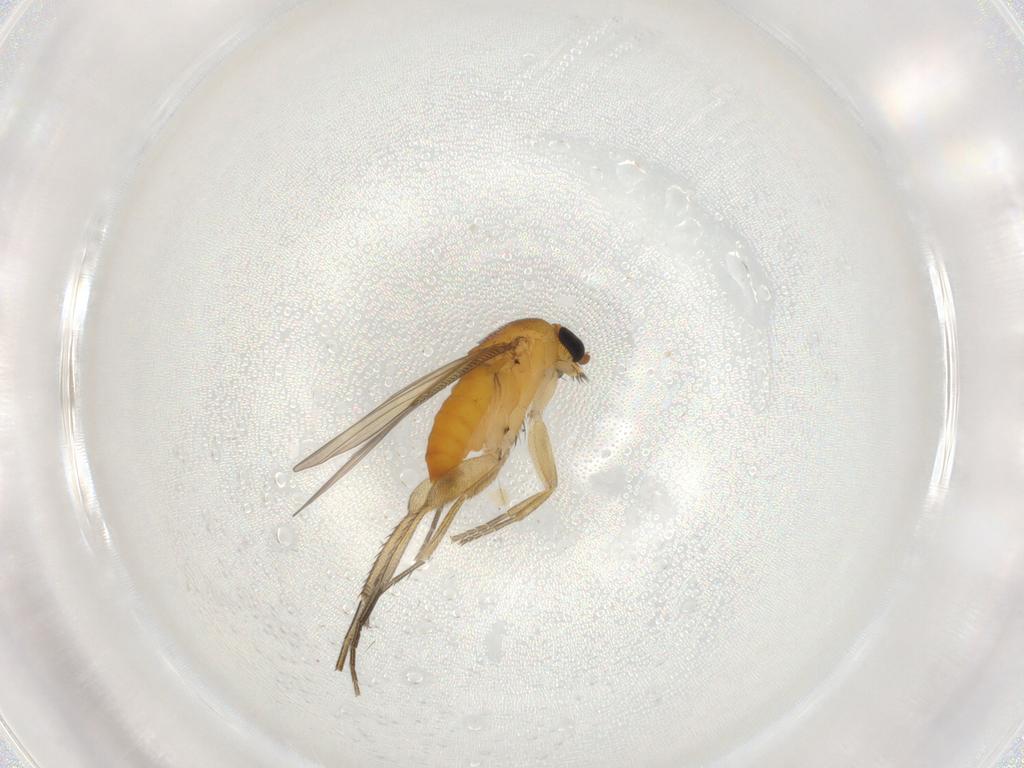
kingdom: Animalia
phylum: Arthropoda
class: Insecta
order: Diptera
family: Phoridae
